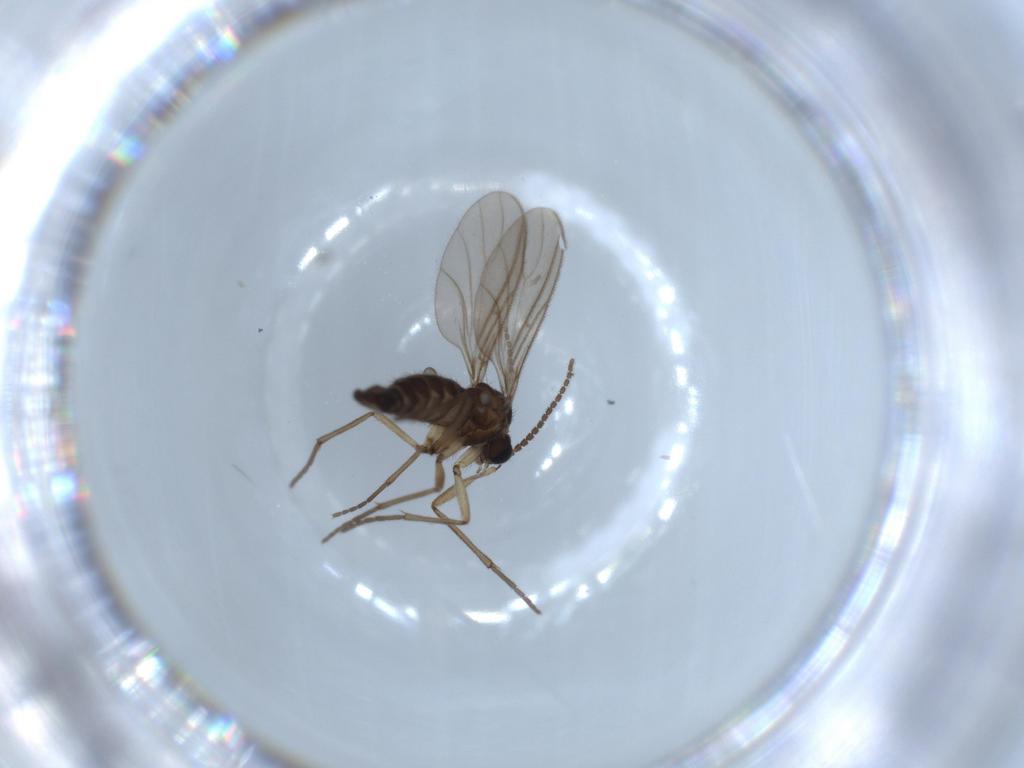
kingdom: Animalia
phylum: Arthropoda
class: Insecta
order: Diptera
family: Sciaridae
